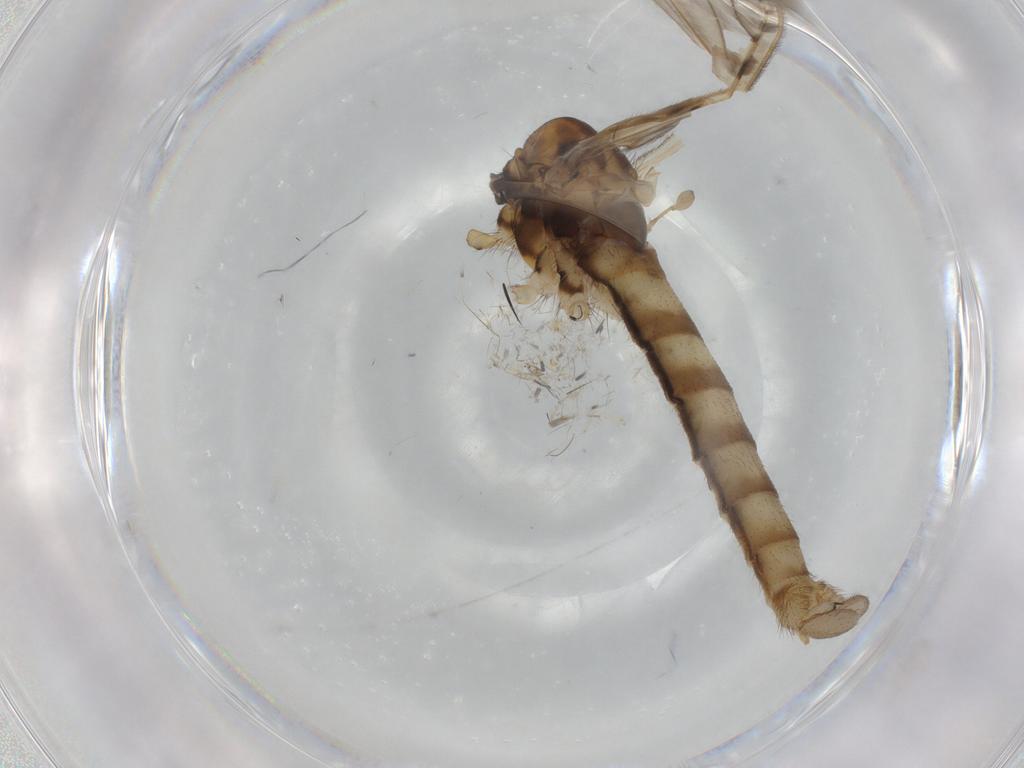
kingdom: Animalia
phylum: Arthropoda
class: Insecta
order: Diptera
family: Limoniidae
